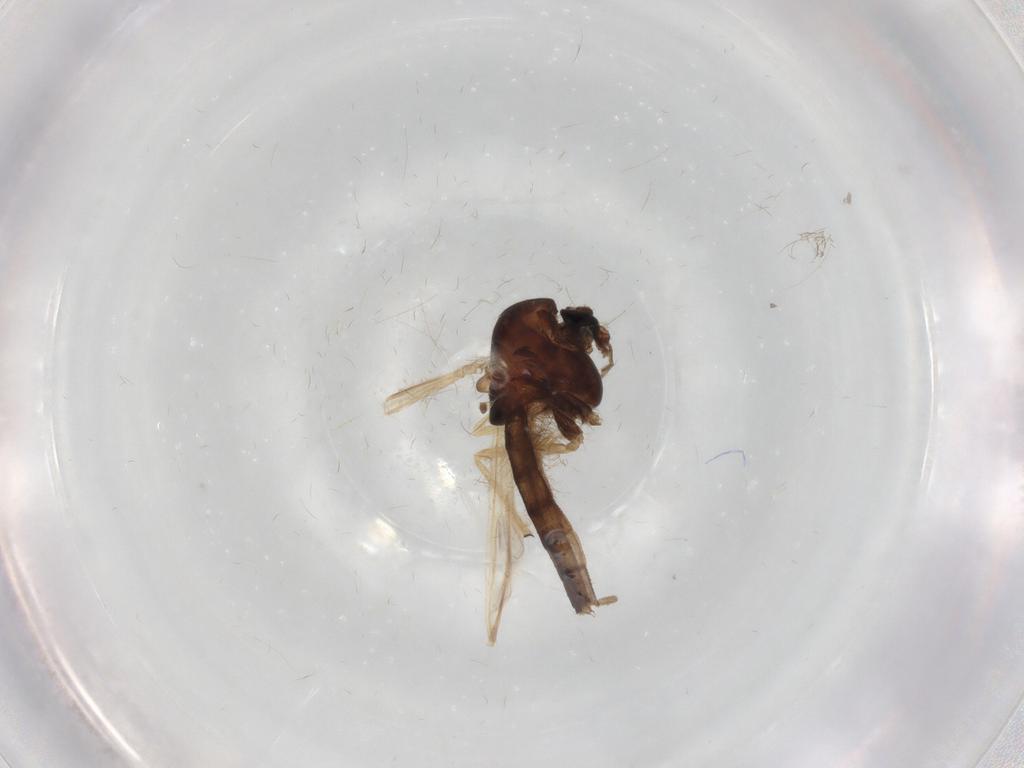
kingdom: Animalia
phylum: Arthropoda
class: Insecta
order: Diptera
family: Chironomidae
